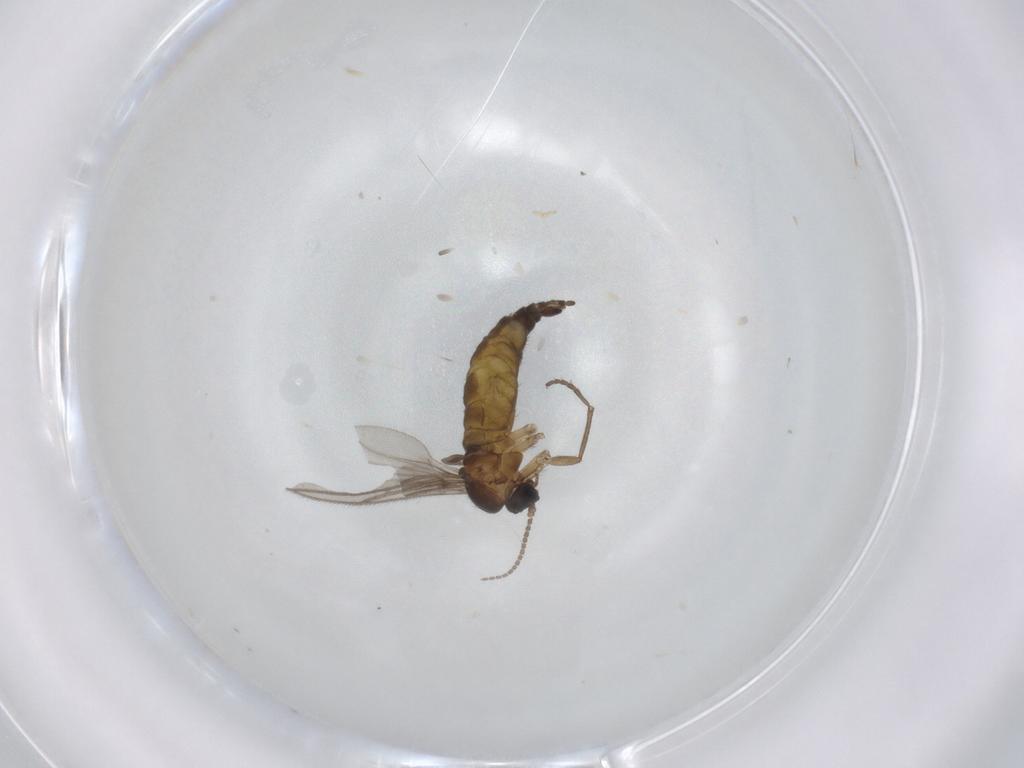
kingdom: Animalia
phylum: Arthropoda
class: Insecta
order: Diptera
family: Sciaridae
